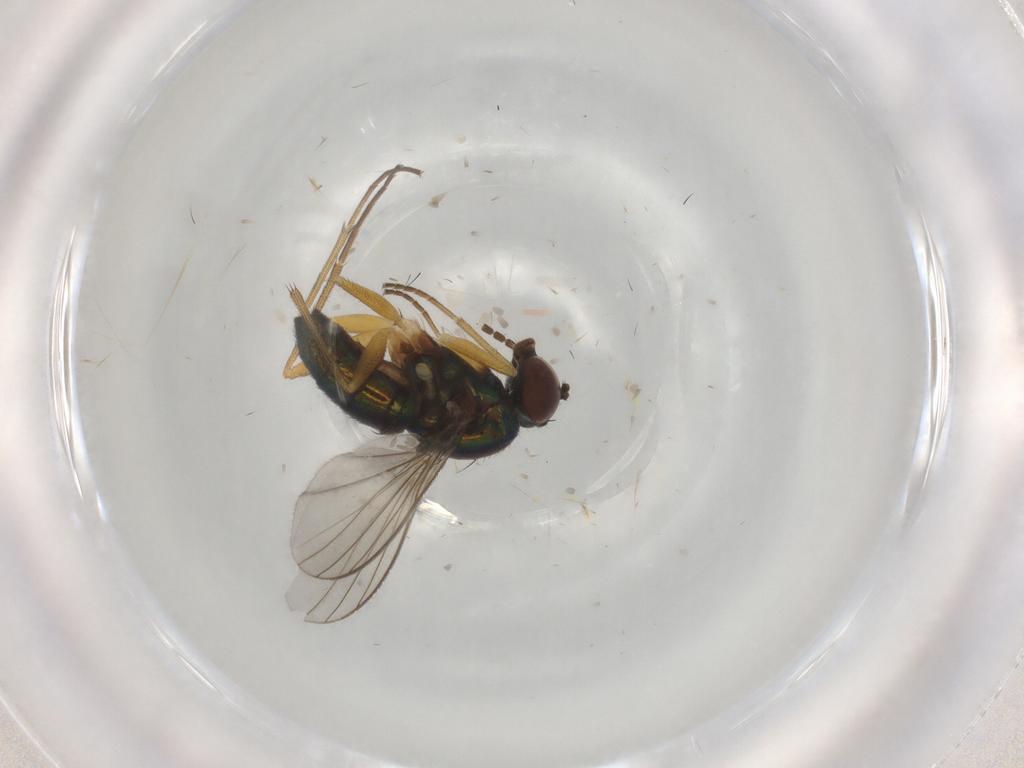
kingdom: Animalia
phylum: Arthropoda
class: Insecta
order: Diptera
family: Dolichopodidae
